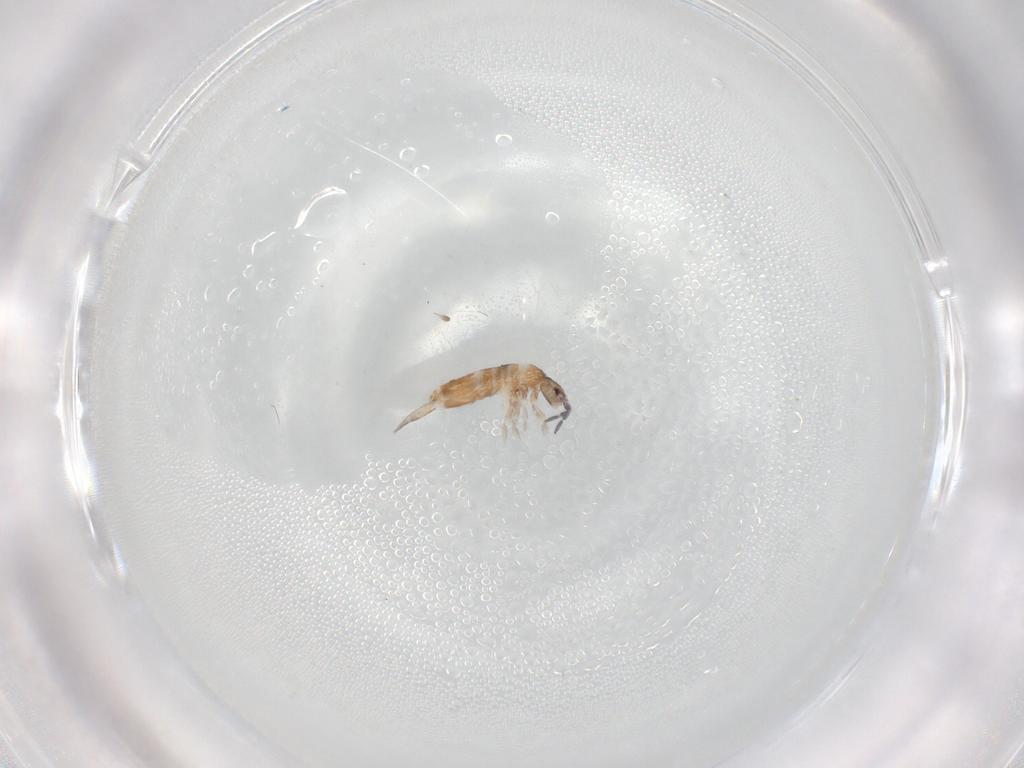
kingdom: Animalia
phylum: Arthropoda
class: Collembola
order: Entomobryomorpha
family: Entomobryidae
